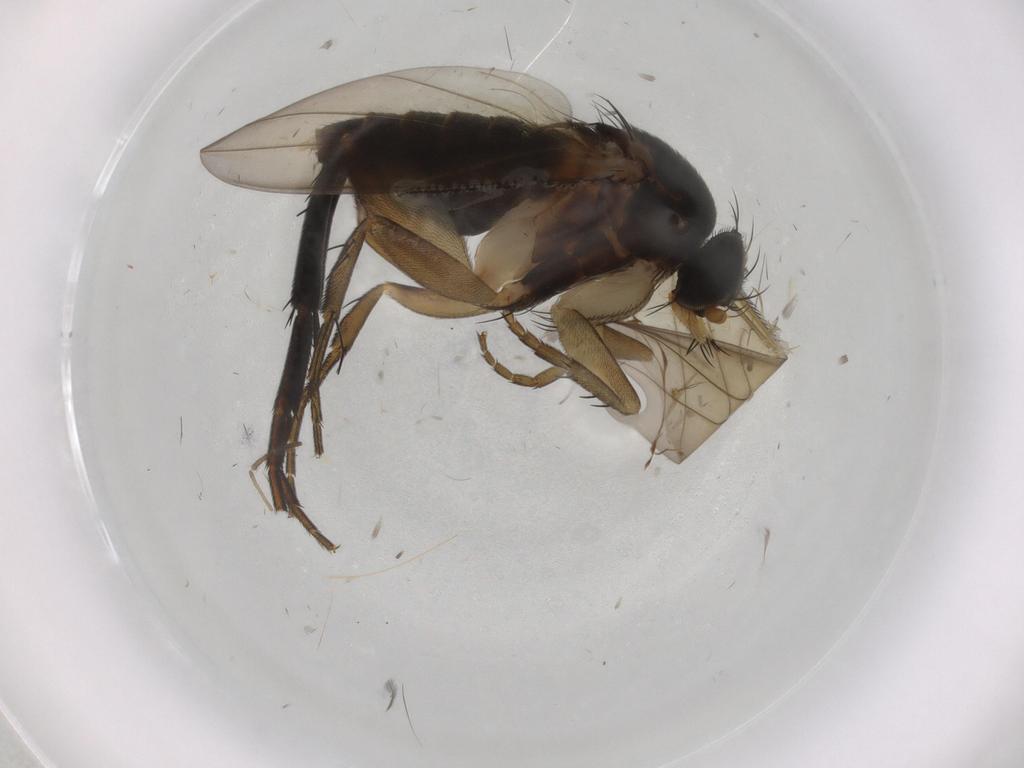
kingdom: Animalia
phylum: Arthropoda
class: Insecta
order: Diptera
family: Phoridae
